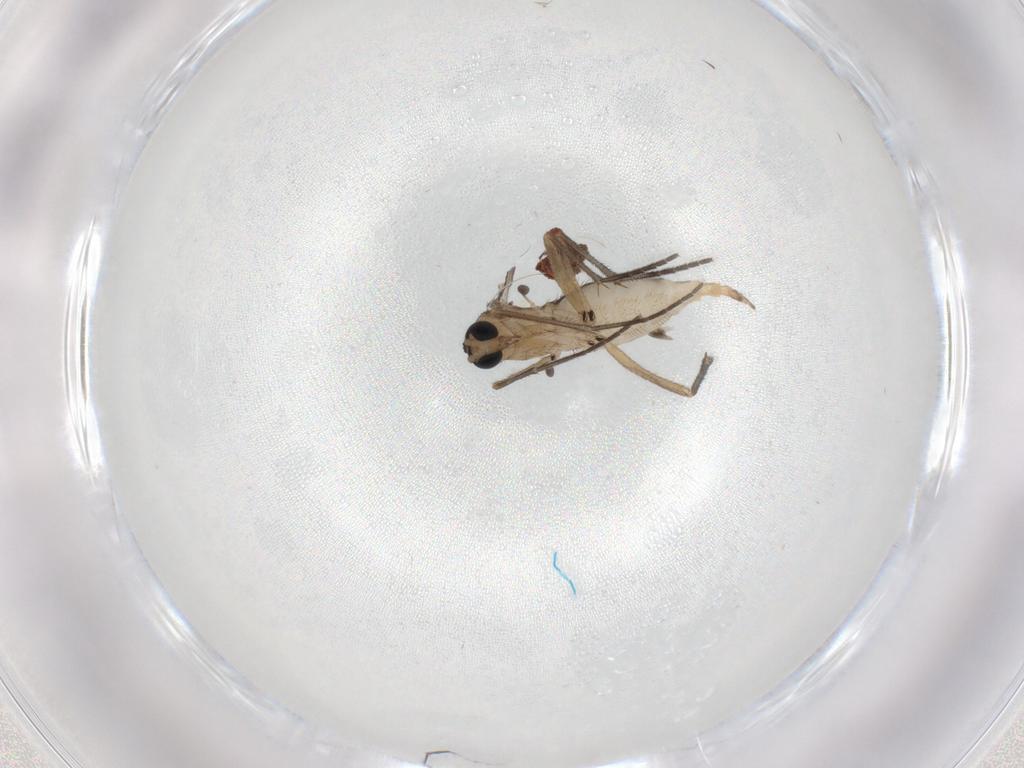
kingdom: Animalia
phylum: Arthropoda
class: Insecta
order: Diptera
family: Sciaridae
